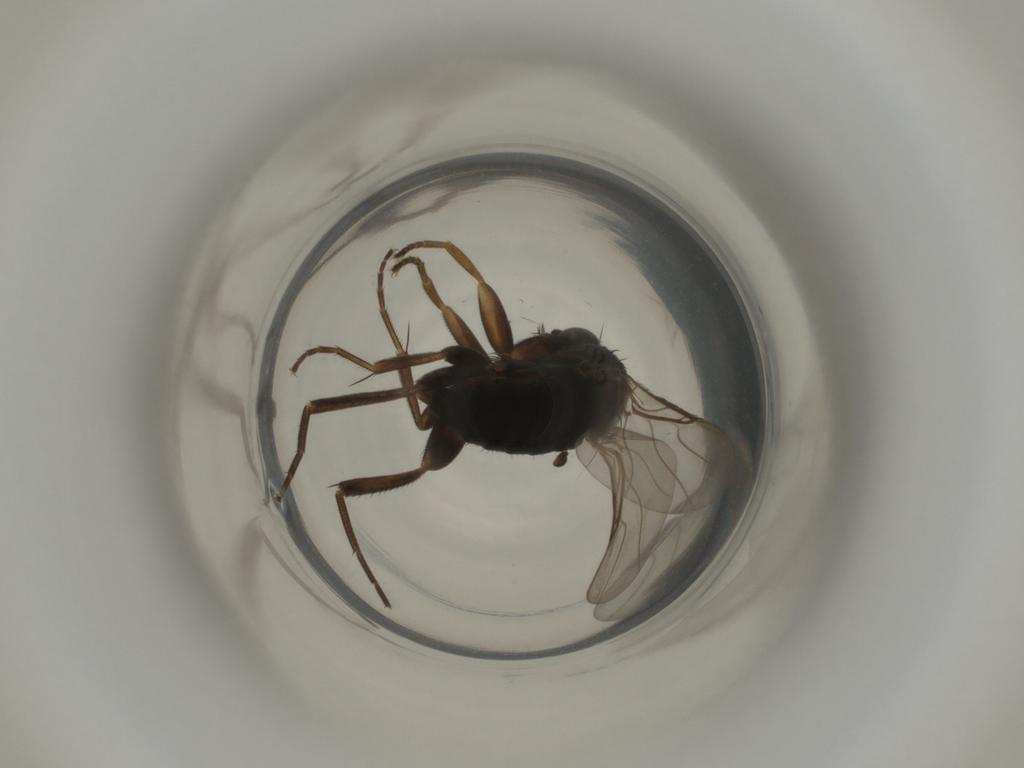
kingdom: Animalia
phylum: Arthropoda
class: Insecta
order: Diptera
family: Phoridae
